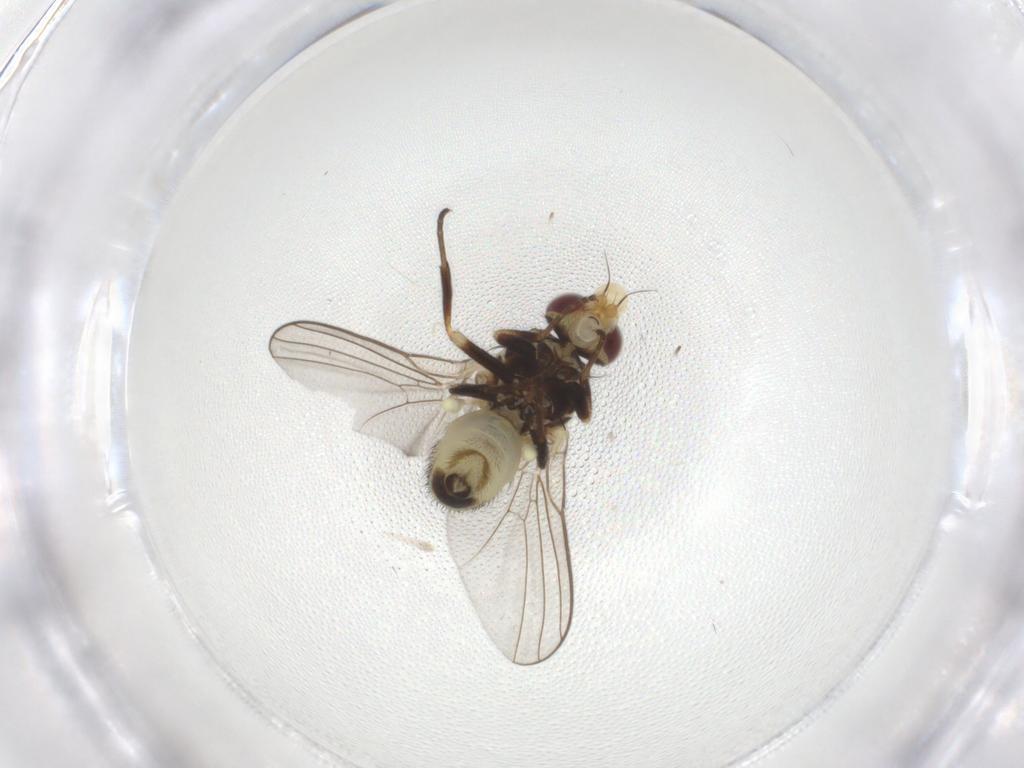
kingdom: Animalia
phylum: Arthropoda
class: Insecta
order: Diptera
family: Agromyzidae
